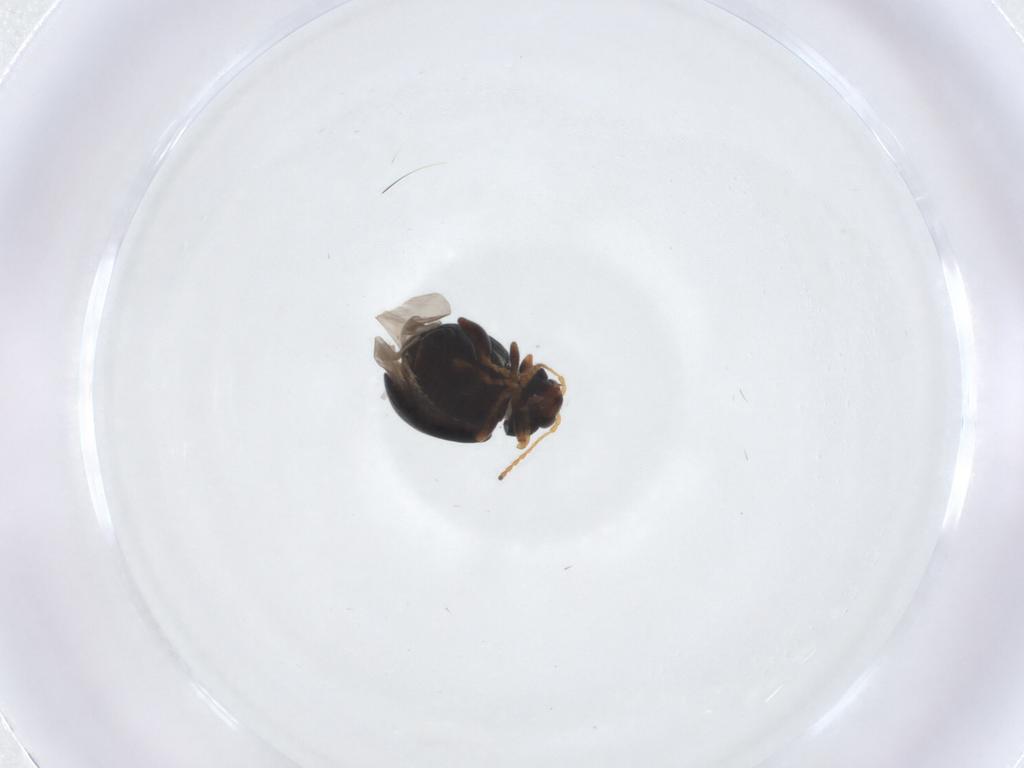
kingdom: Animalia
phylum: Arthropoda
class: Insecta
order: Coleoptera
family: Chrysomelidae
